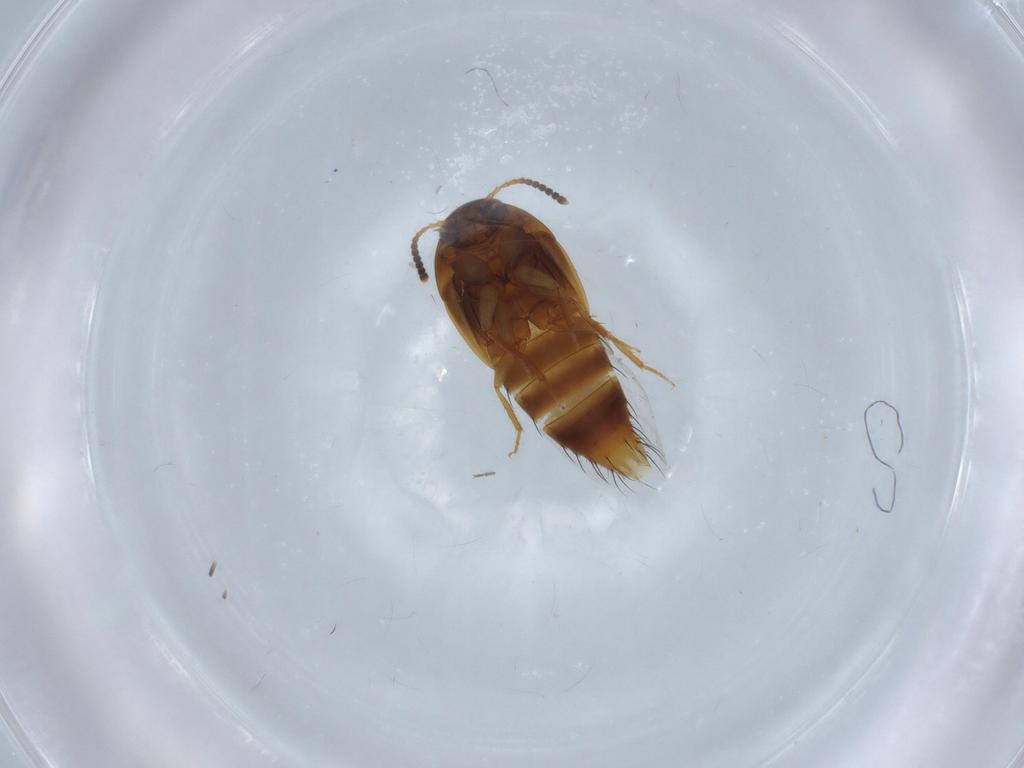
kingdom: Animalia
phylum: Arthropoda
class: Insecta
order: Coleoptera
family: Staphylinidae
